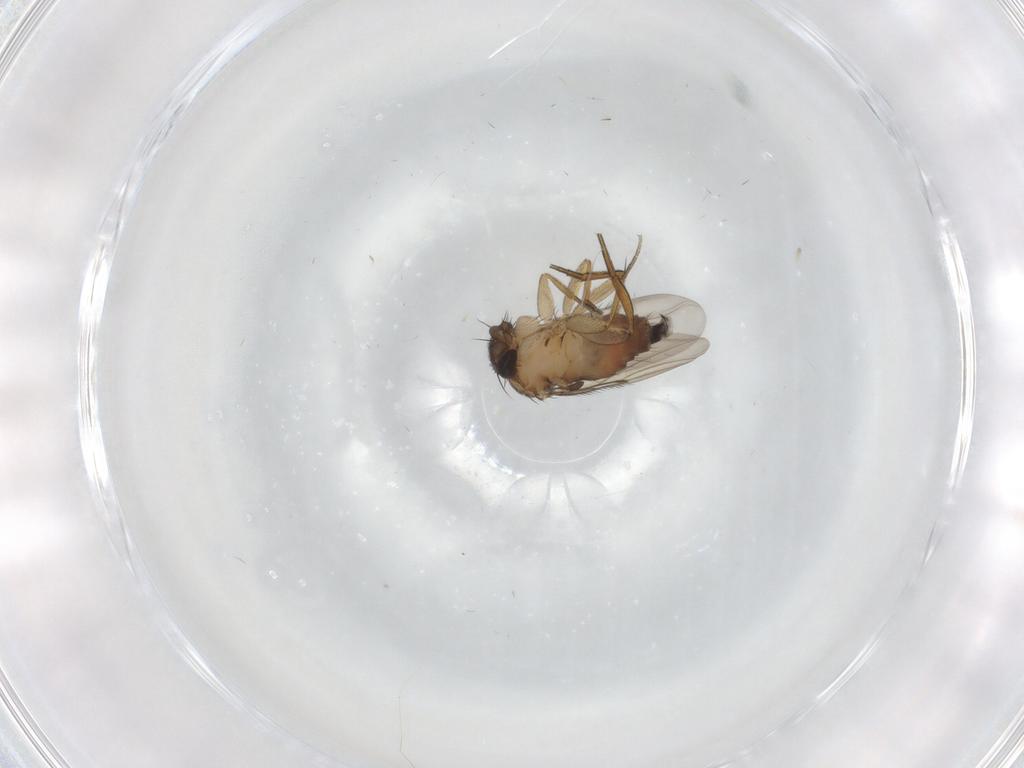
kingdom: Animalia
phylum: Arthropoda
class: Insecta
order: Diptera
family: Phoridae
